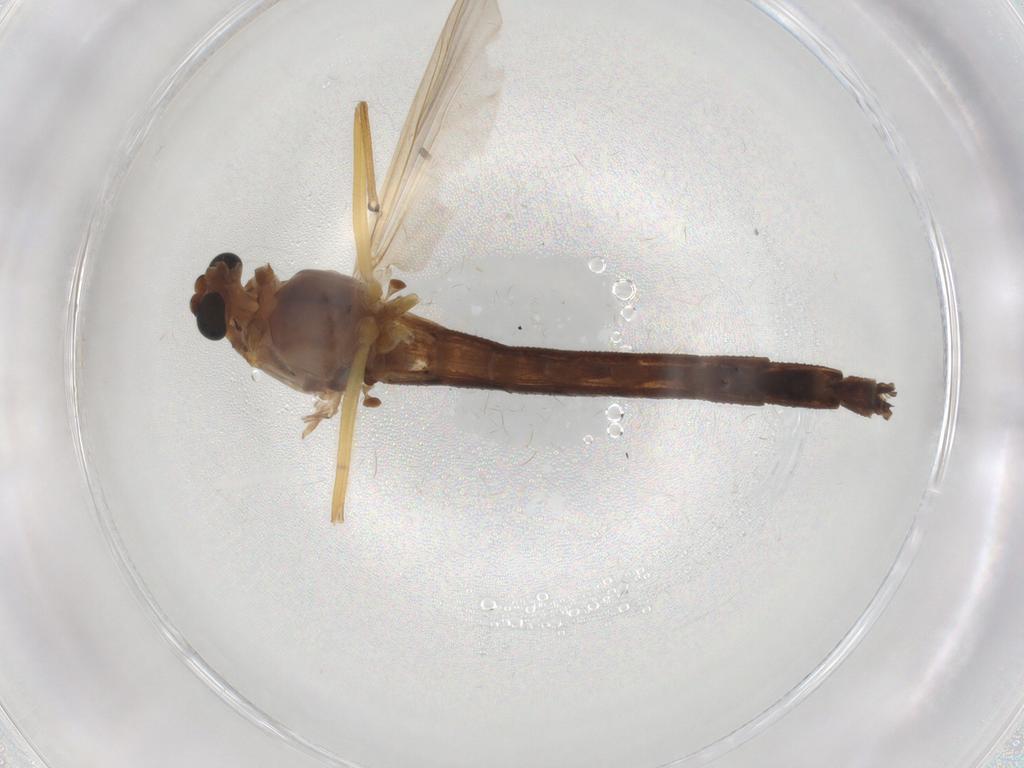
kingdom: Animalia
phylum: Arthropoda
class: Insecta
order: Diptera
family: Chironomidae
